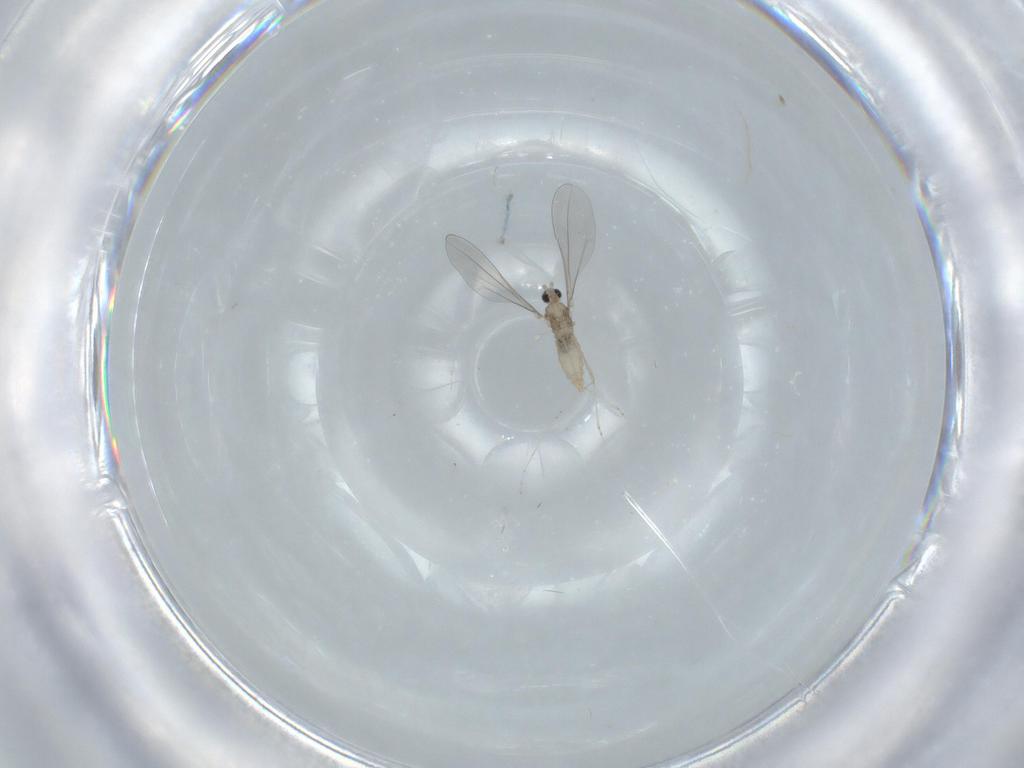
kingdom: Animalia
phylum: Arthropoda
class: Insecta
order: Diptera
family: Cecidomyiidae
